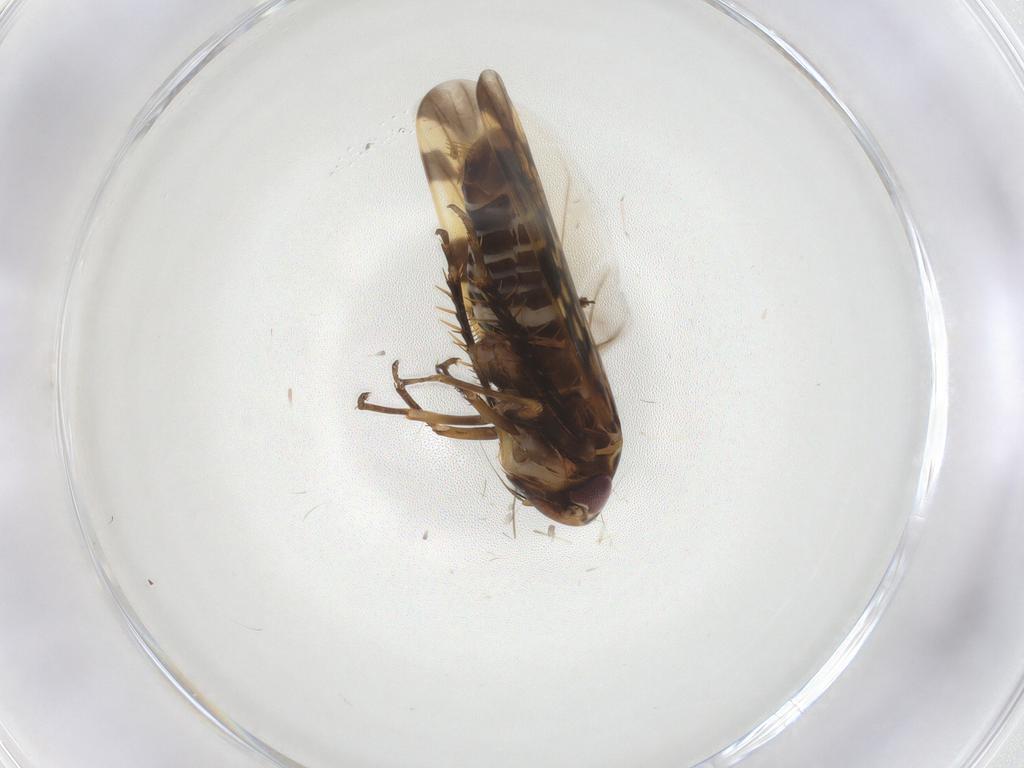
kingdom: Animalia
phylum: Arthropoda
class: Insecta
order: Hemiptera
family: Cicadellidae
